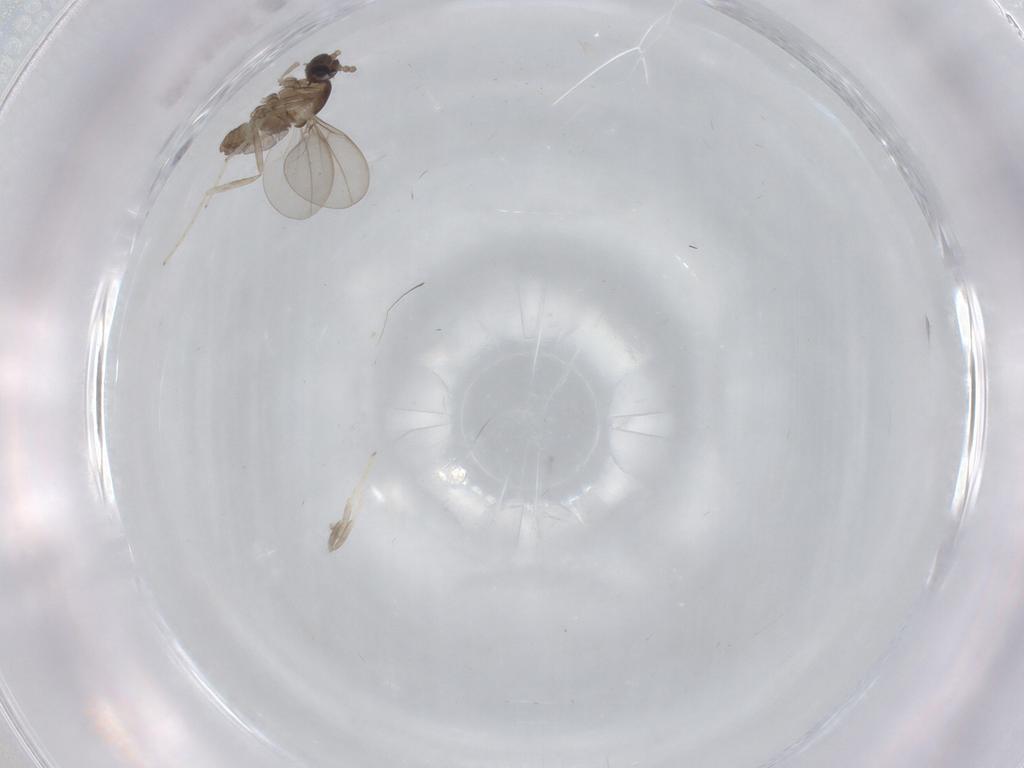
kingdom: Animalia
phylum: Arthropoda
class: Insecta
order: Diptera
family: Cecidomyiidae
